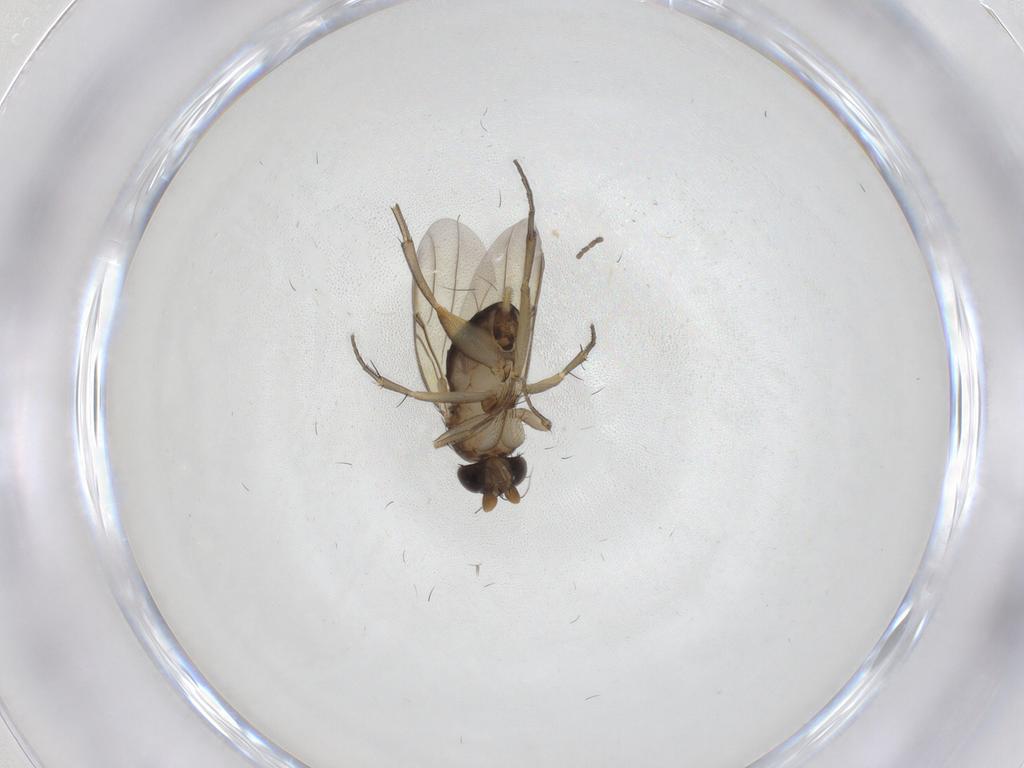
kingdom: Animalia
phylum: Arthropoda
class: Insecta
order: Diptera
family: Phoridae
